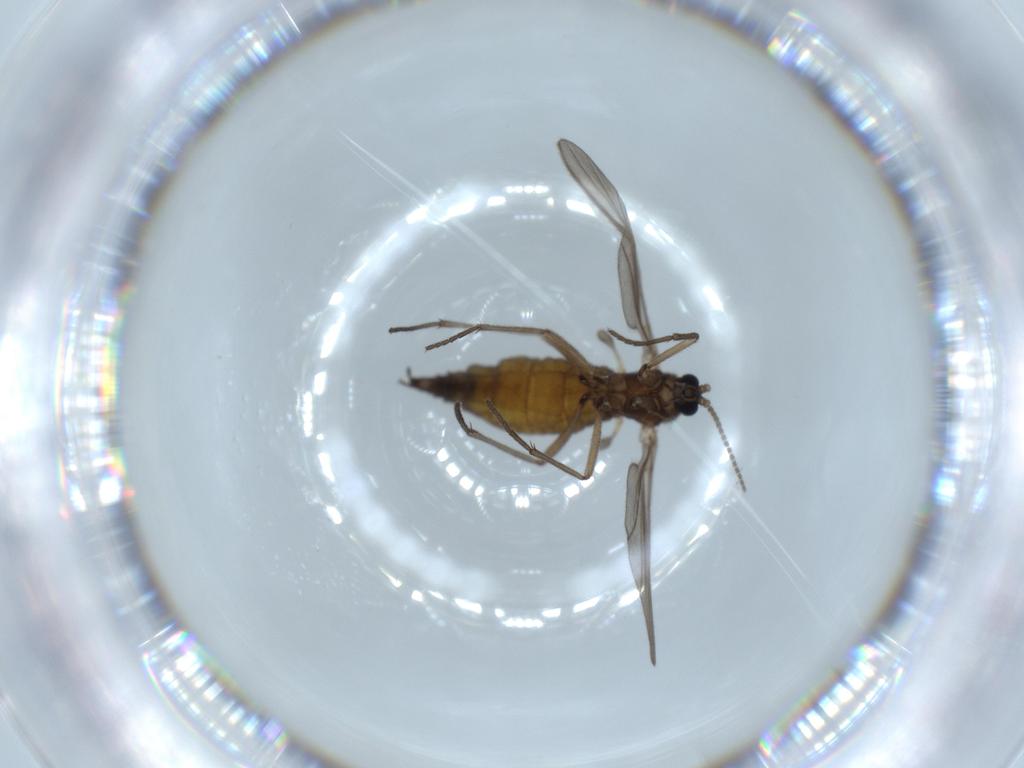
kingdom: Animalia
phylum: Arthropoda
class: Insecta
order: Diptera
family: Sciaridae
